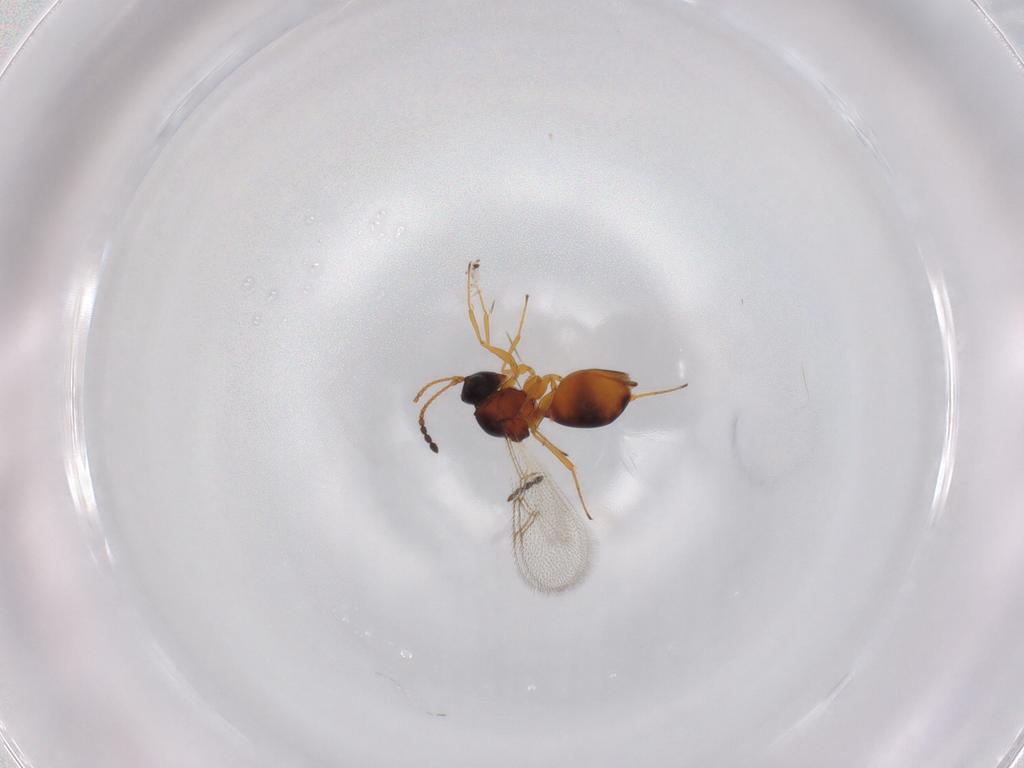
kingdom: Animalia
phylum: Arthropoda
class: Insecta
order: Hymenoptera
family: Figitidae
